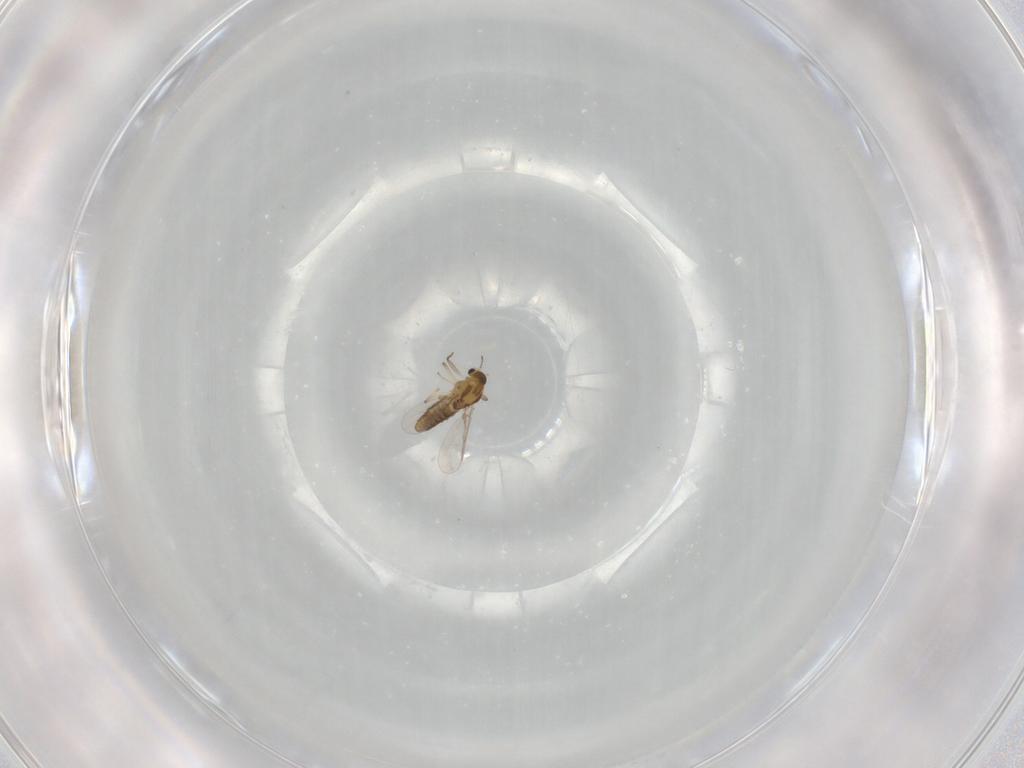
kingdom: Animalia
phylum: Arthropoda
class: Insecta
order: Diptera
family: Chironomidae
